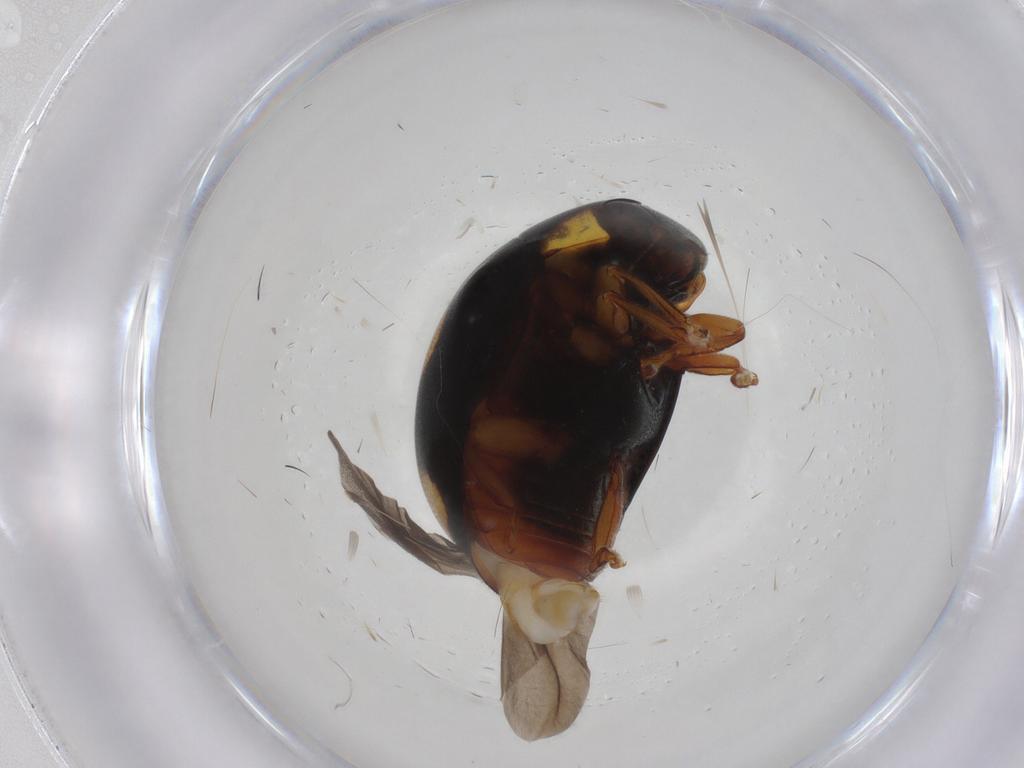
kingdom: Animalia
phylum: Arthropoda
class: Insecta
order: Coleoptera
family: Coccinellidae
